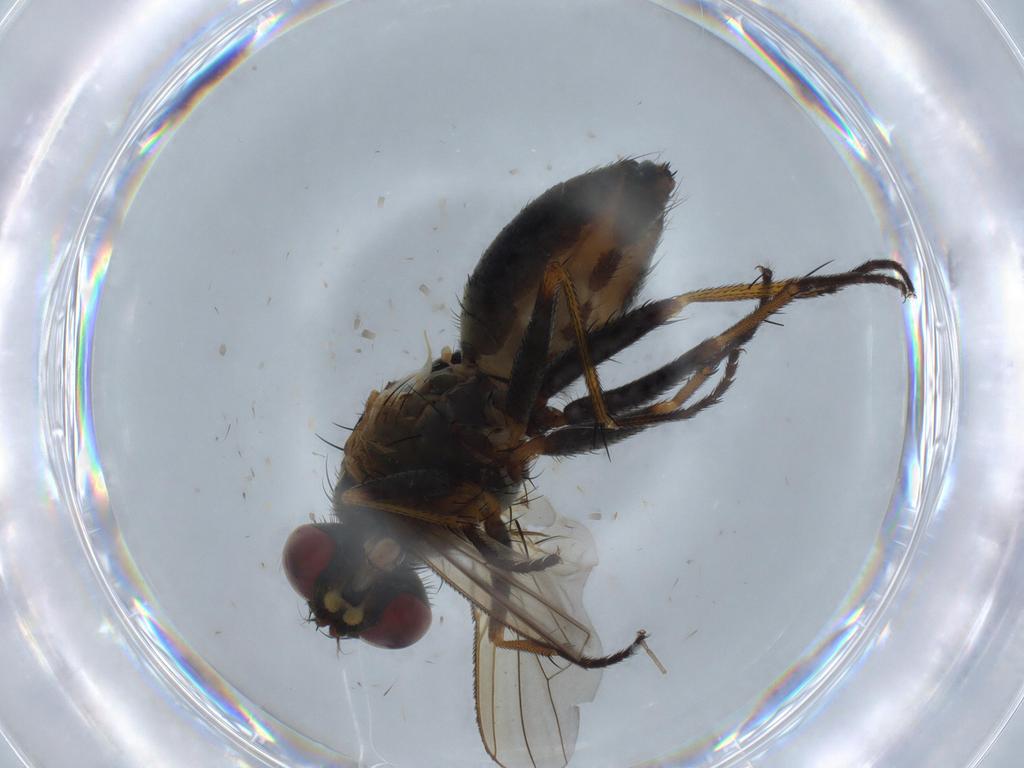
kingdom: Animalia
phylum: Arthropoda
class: Insecta
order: Diptera
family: Muscidae
